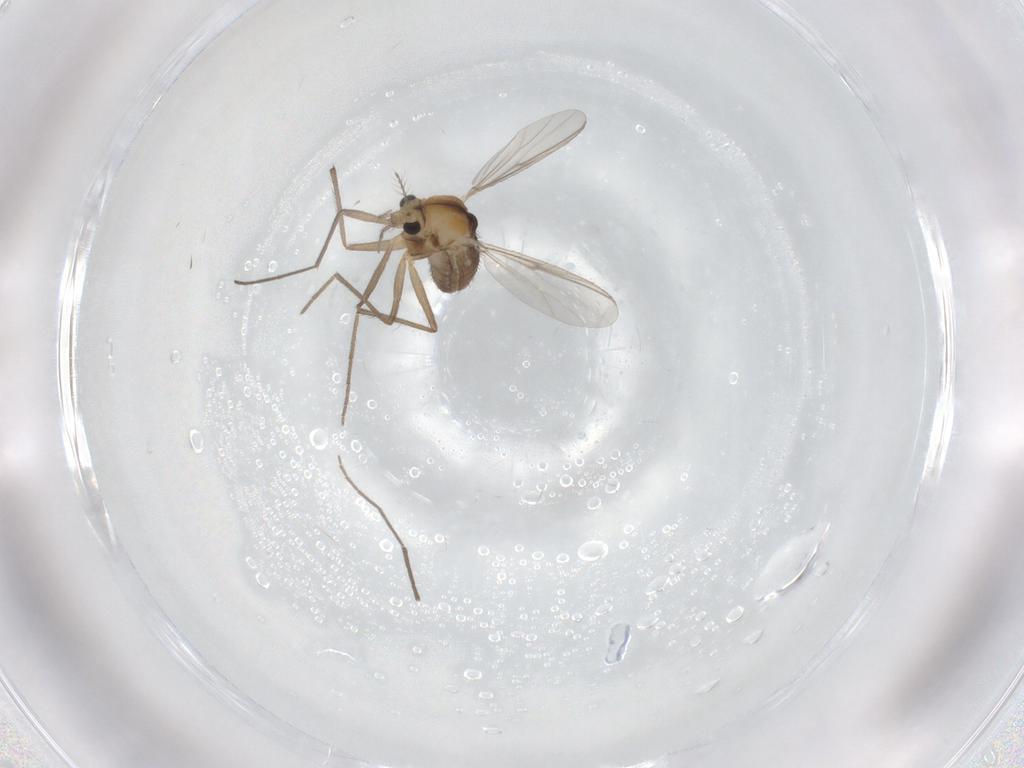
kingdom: Animalia
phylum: Arthropoda
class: Insecta
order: Diptera
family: Chironomidae
